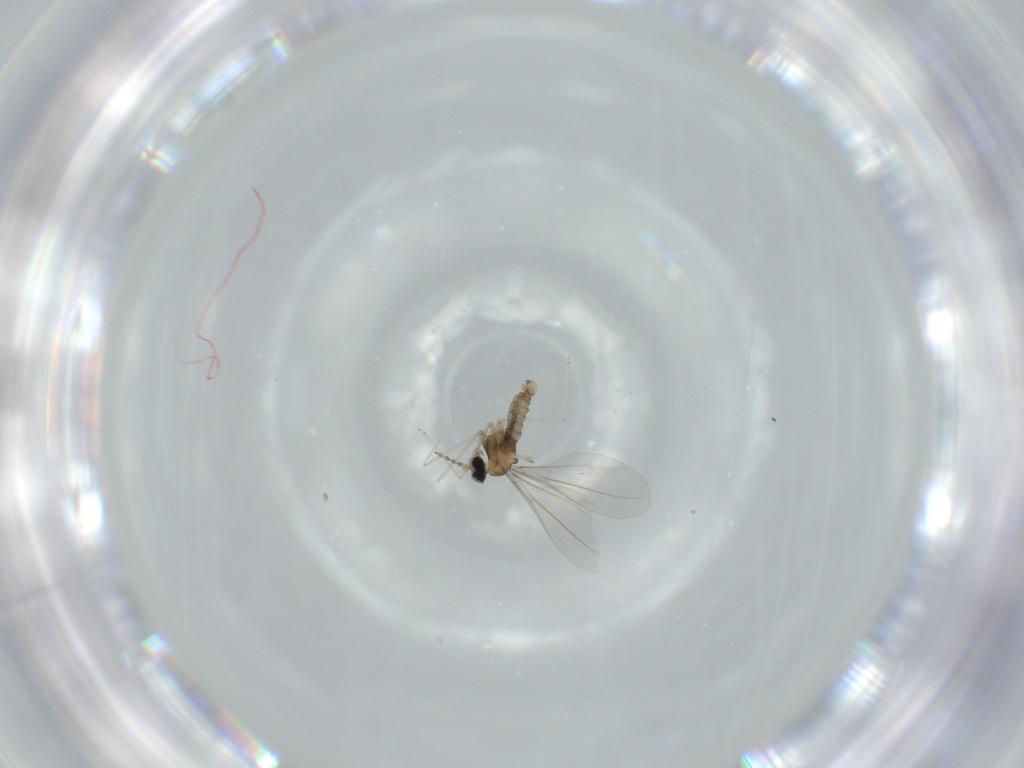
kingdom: Animalia
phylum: Arthropoda
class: Insecta
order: Diptera
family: Cecidomyiidae
